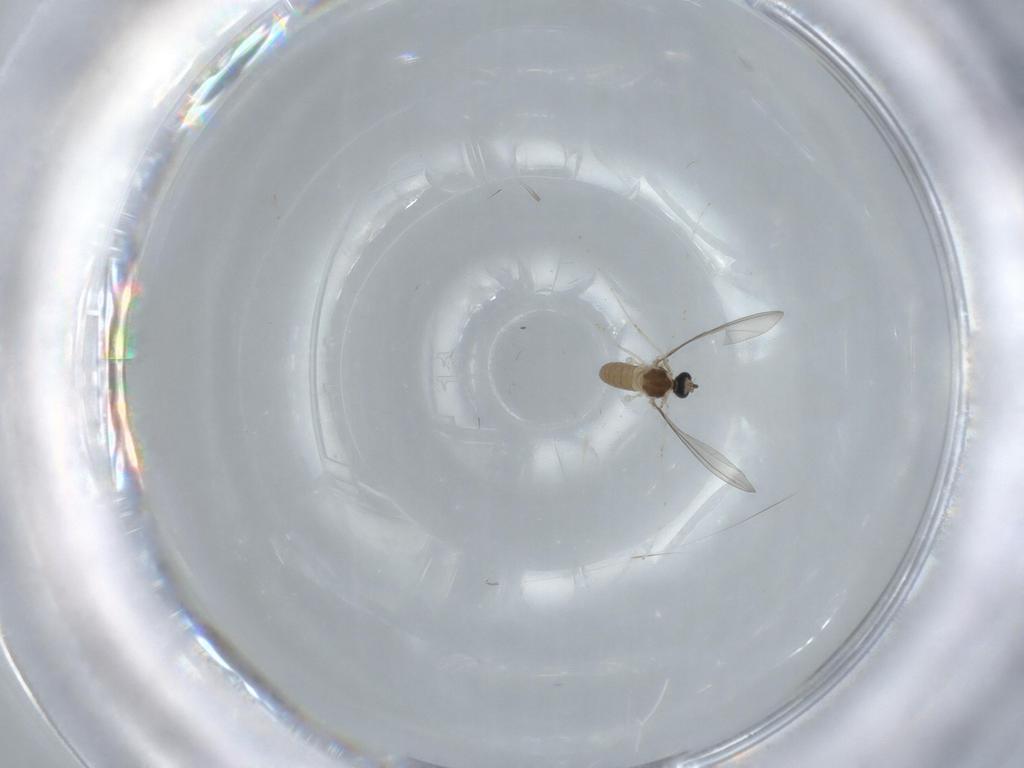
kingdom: Animalia
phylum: Arthropoda
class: Insecta
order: Diptera
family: Cecidomyiidae
